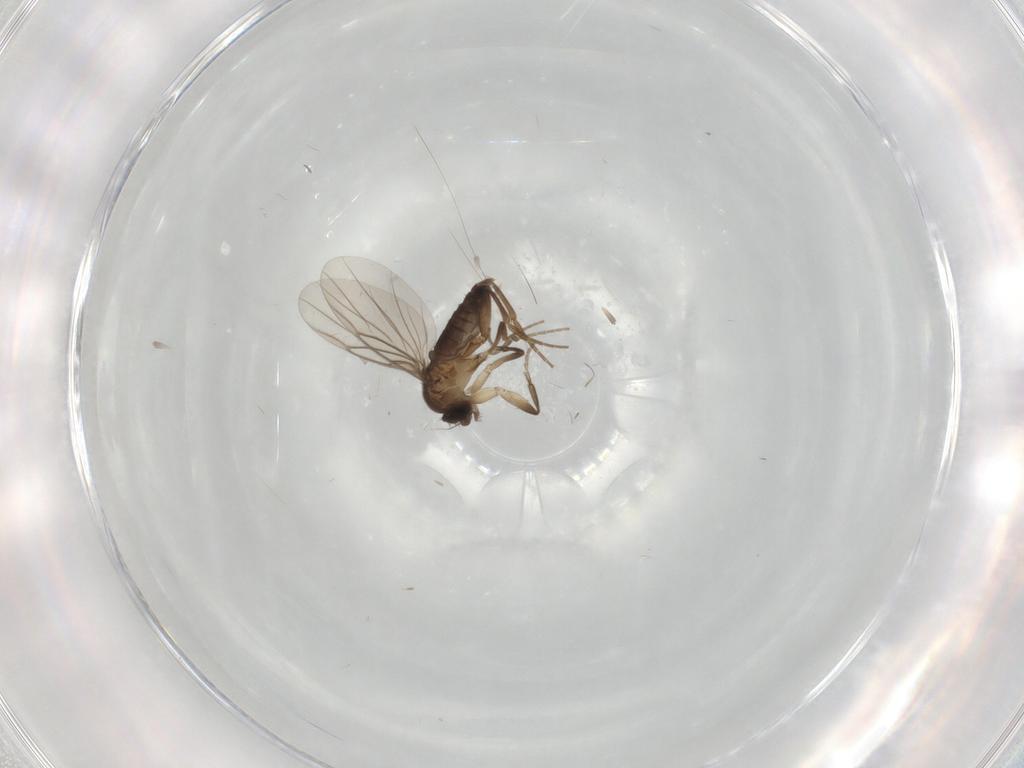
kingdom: Animalia
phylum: Arthropoda
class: Insecta
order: Diptera
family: Phoridae
